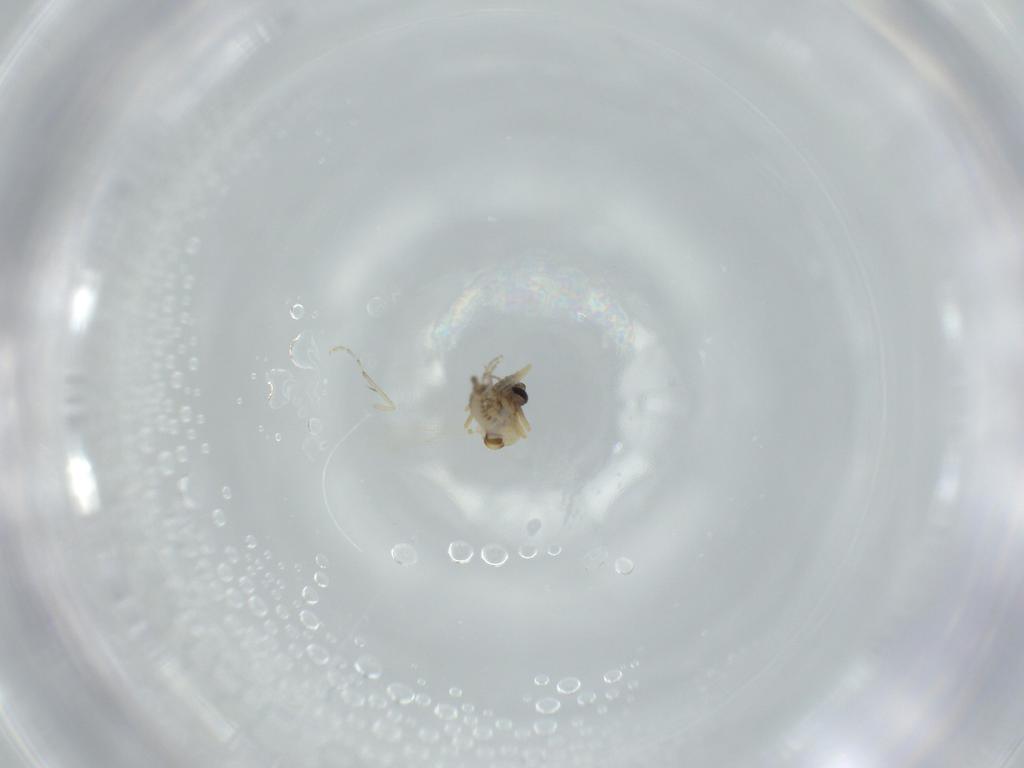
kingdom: Animalia
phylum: Arthropoda
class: Insecta
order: Diptera
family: Ceratopogonidae
